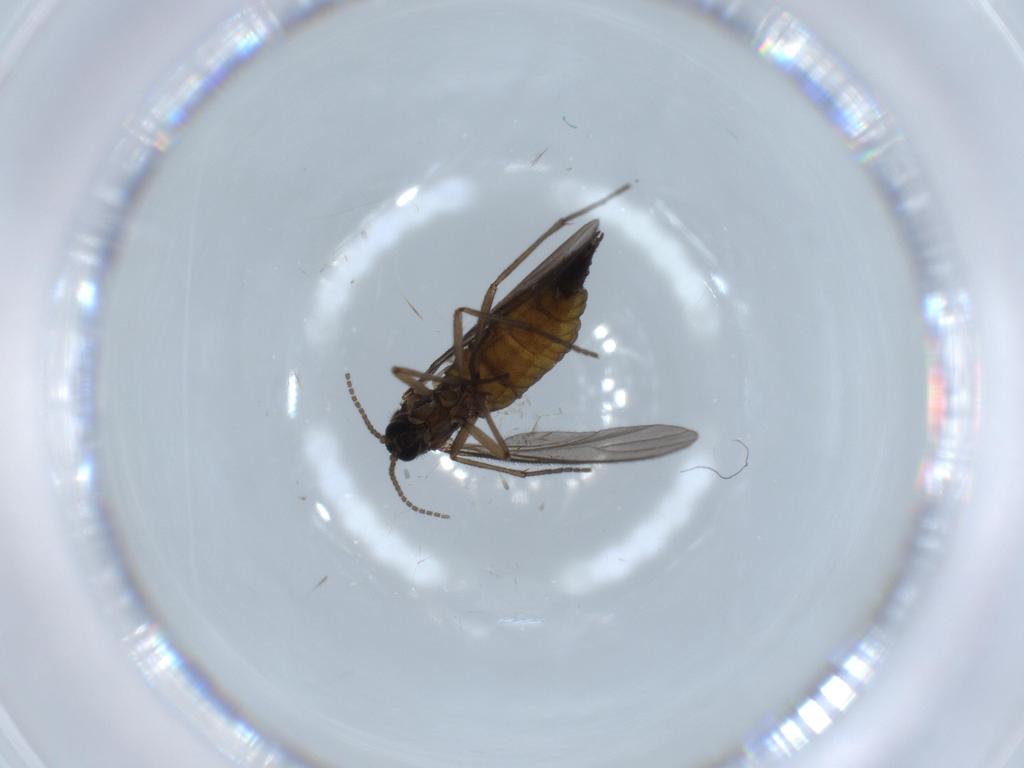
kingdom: Animalia
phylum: Arthropoda
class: Insecta
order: Diptera
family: Sciaridae
